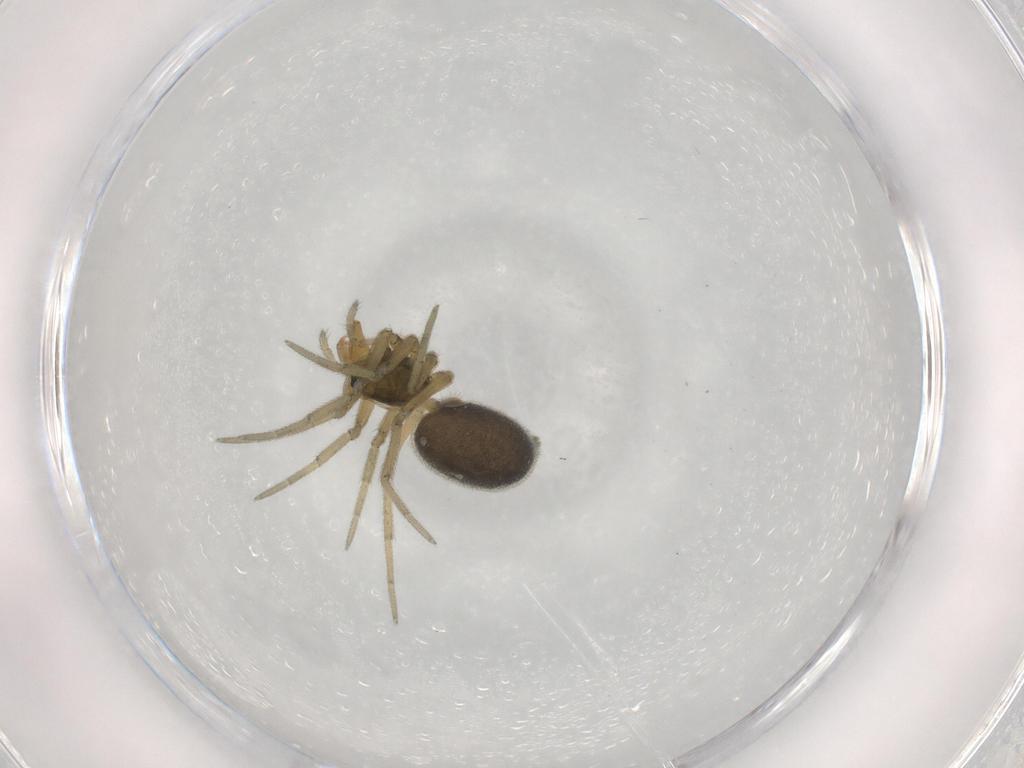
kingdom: Animalia
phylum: Arthropoda
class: Arachnida
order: Araneae
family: Linyphiidae
